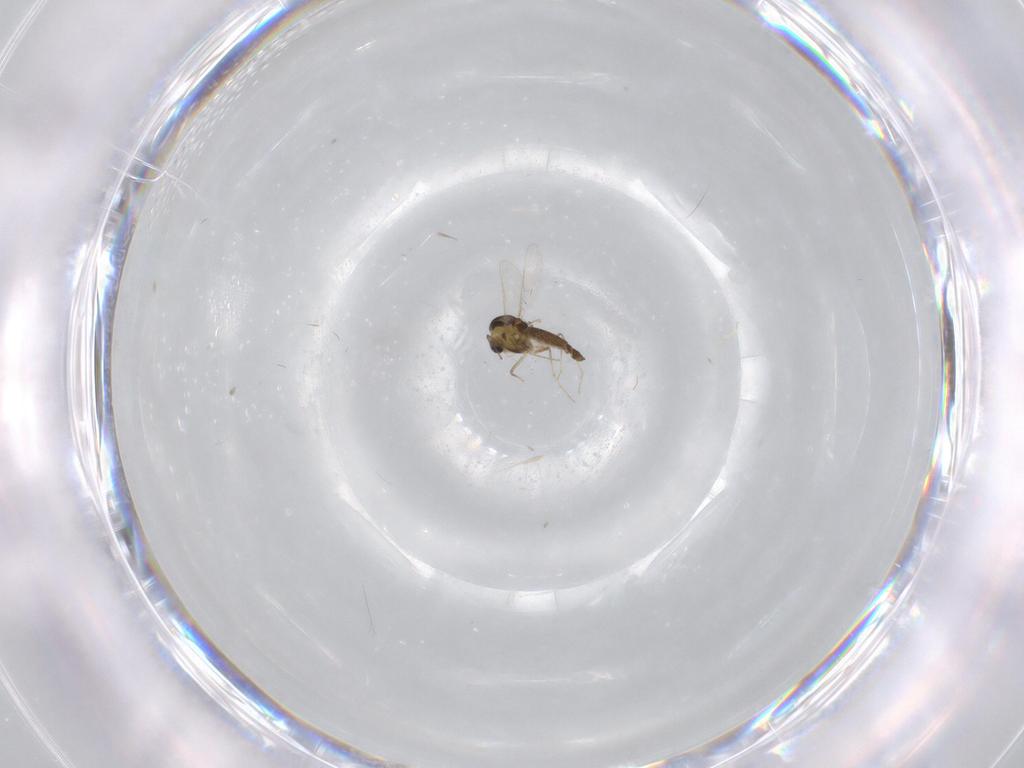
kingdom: Animalia
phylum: Arthropoda
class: Insecta
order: Diptera
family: Chironomidae
